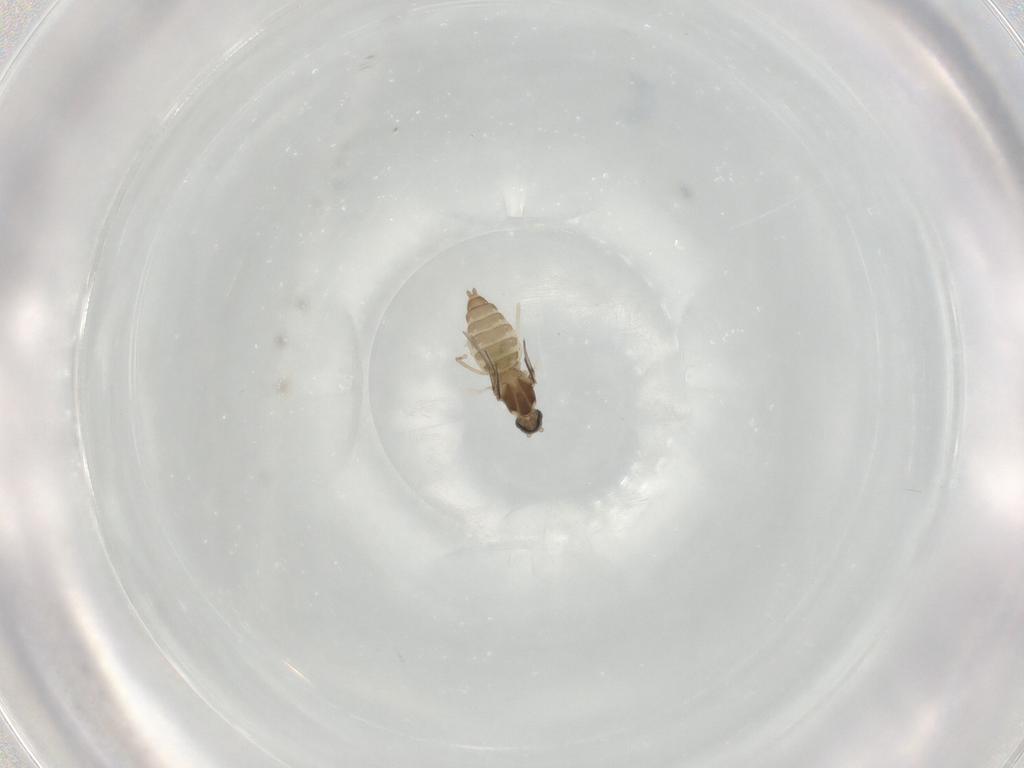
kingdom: Animalia
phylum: Arthropoda
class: Insecta
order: Diptera
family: Cecidomyiidae
